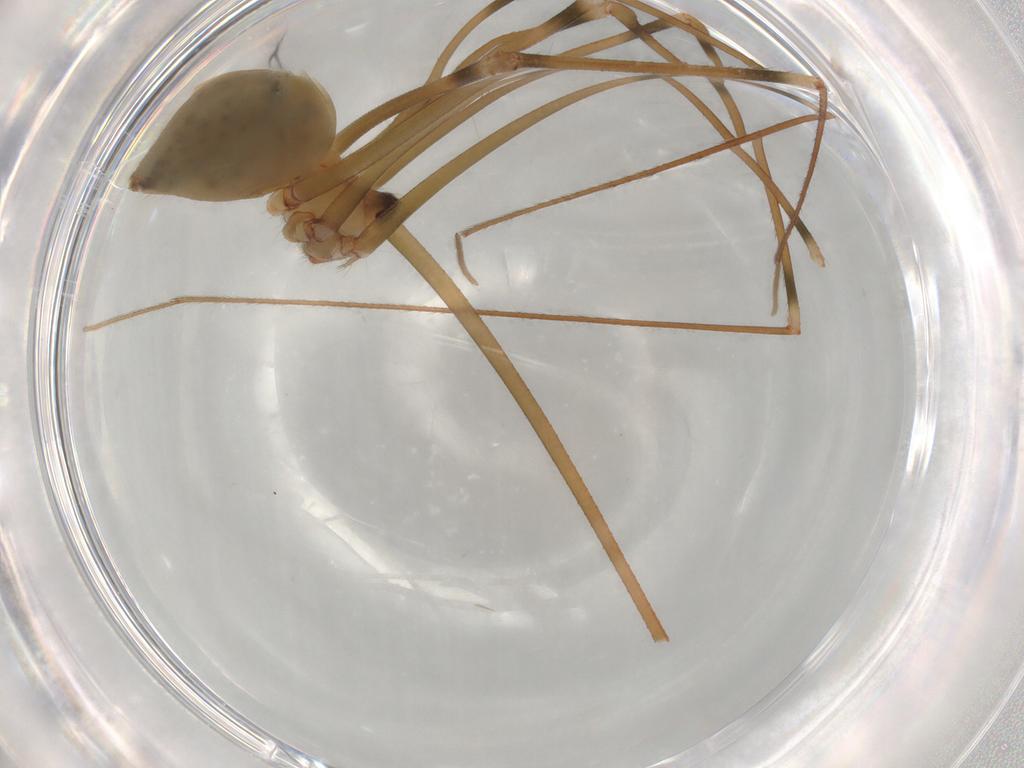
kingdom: Animalia
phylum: Arthropoda
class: Arachnida
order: Araneae
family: Pholcidae
